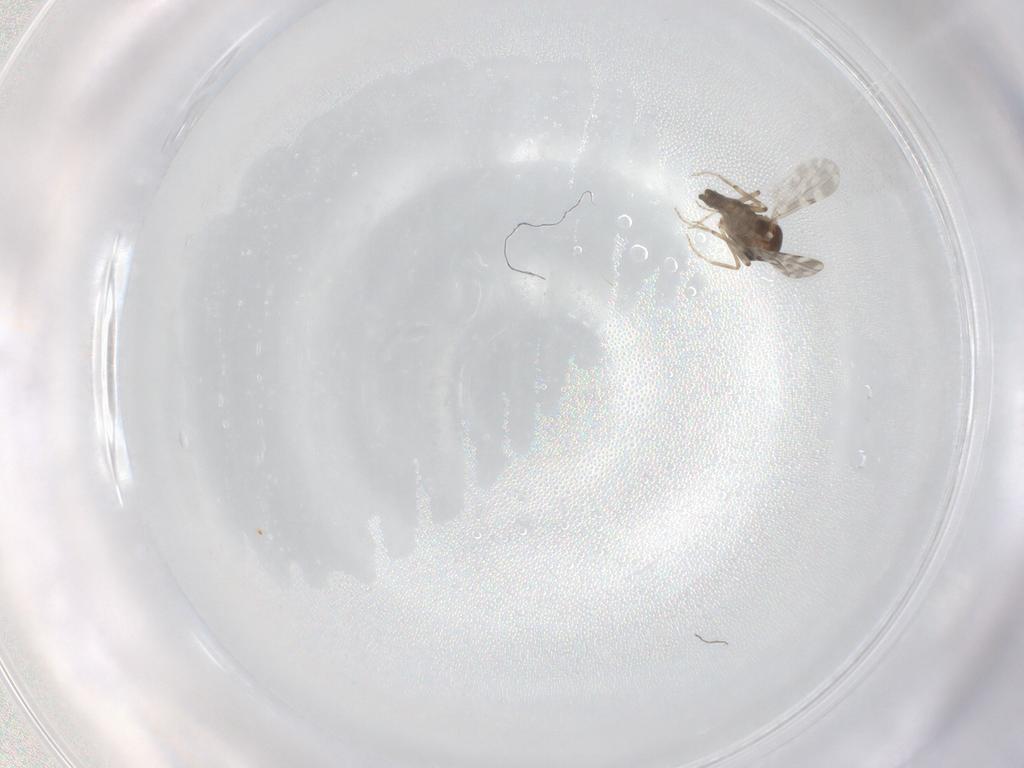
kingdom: Animalia
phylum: Arthropoda
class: Insecta
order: Diptera
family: Ceratopogonidae
